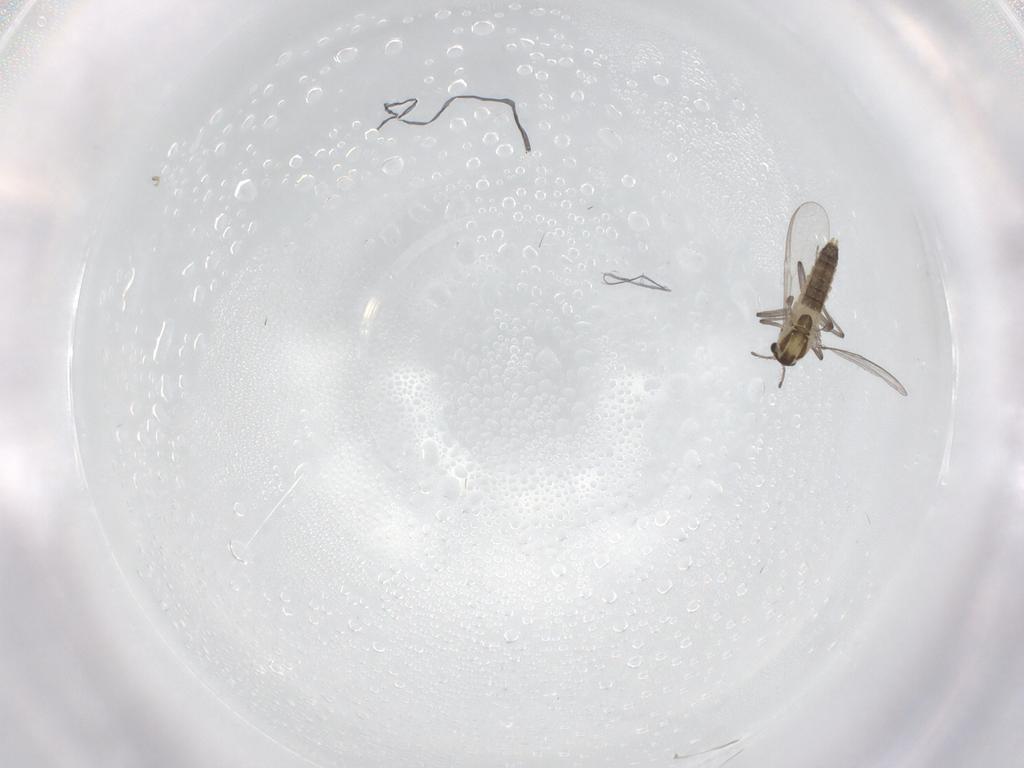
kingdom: Animalia
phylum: Arthropoda
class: Insecta
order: Diptera
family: Chironomidae
